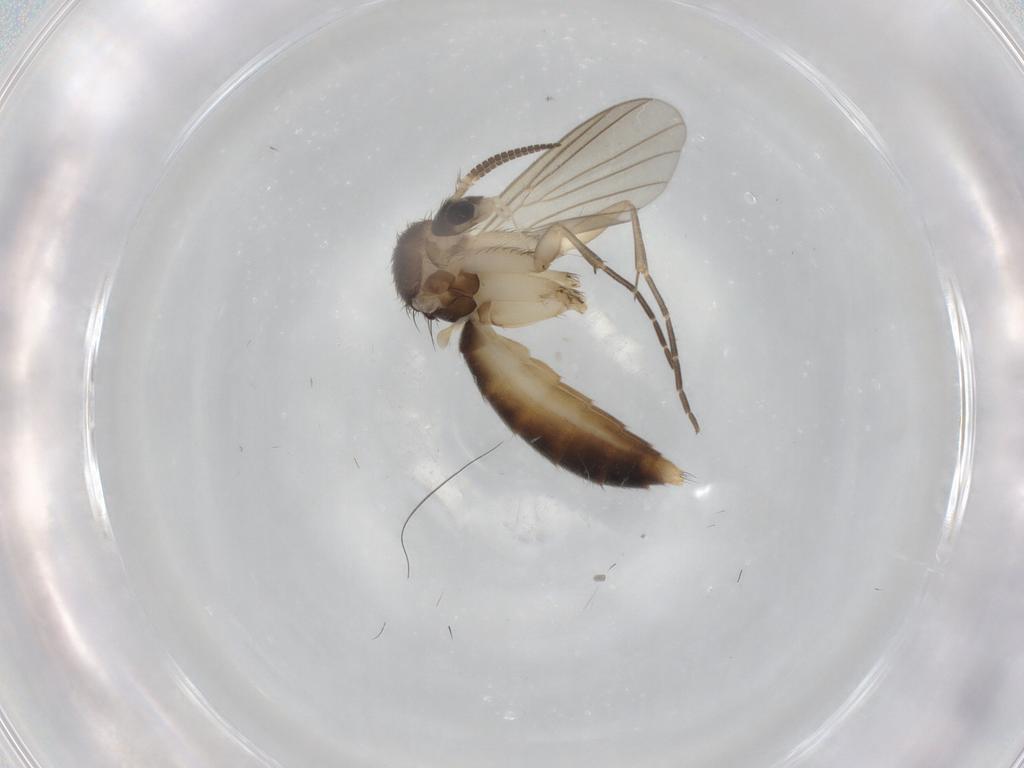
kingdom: Animalia
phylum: Arthropoda
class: Insecta
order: Diptera
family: Mycetophilidae
